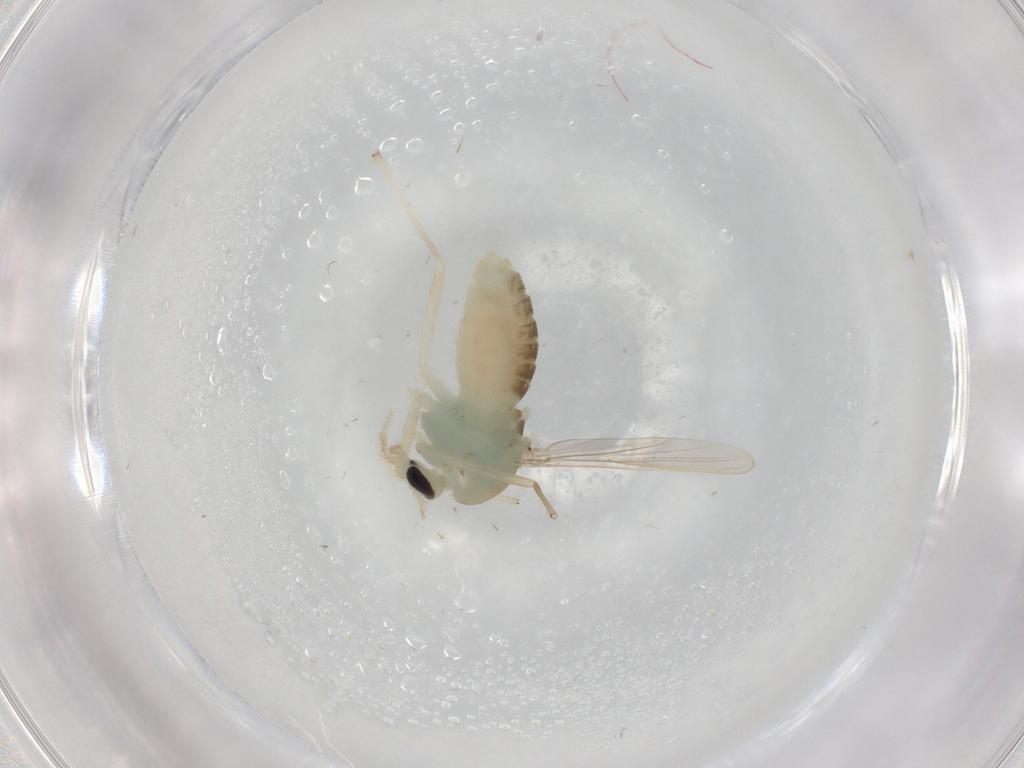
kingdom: Animalia
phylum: Arthropoda
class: Insecta
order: Diptera
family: Chironomidae
